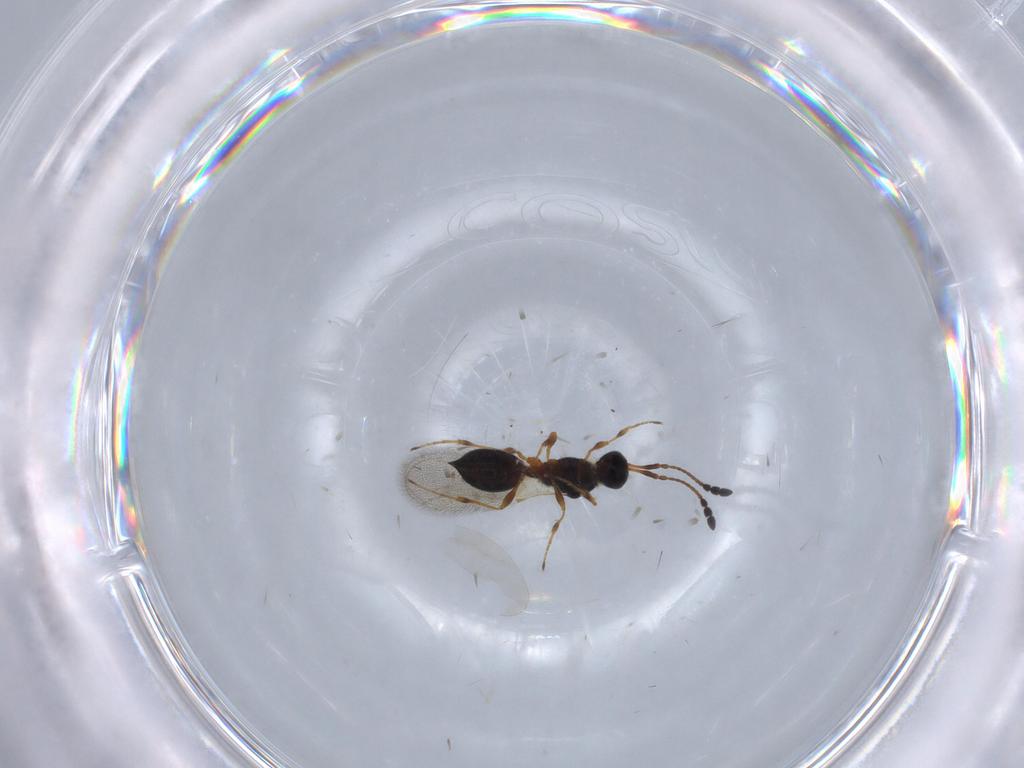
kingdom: Animalia
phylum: Arthropoda
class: Insecta
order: Hymenoptera
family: Diapriidae
